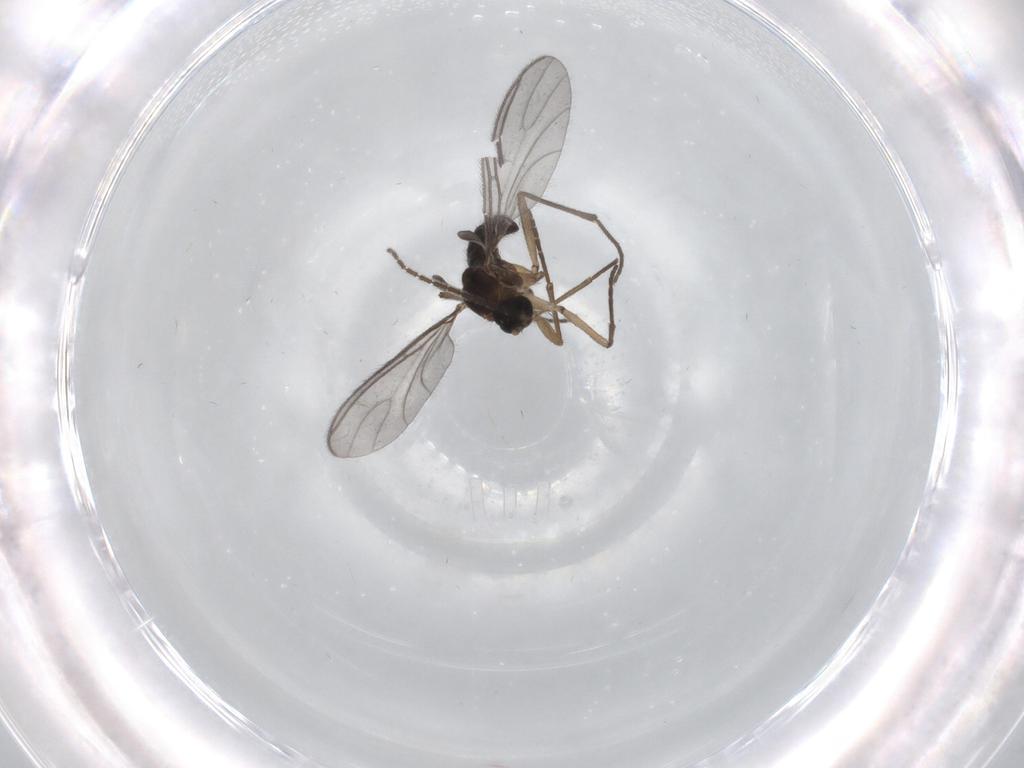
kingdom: Animalia
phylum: Arthropoda
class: Insecta
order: Diptera
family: Sciaridae
